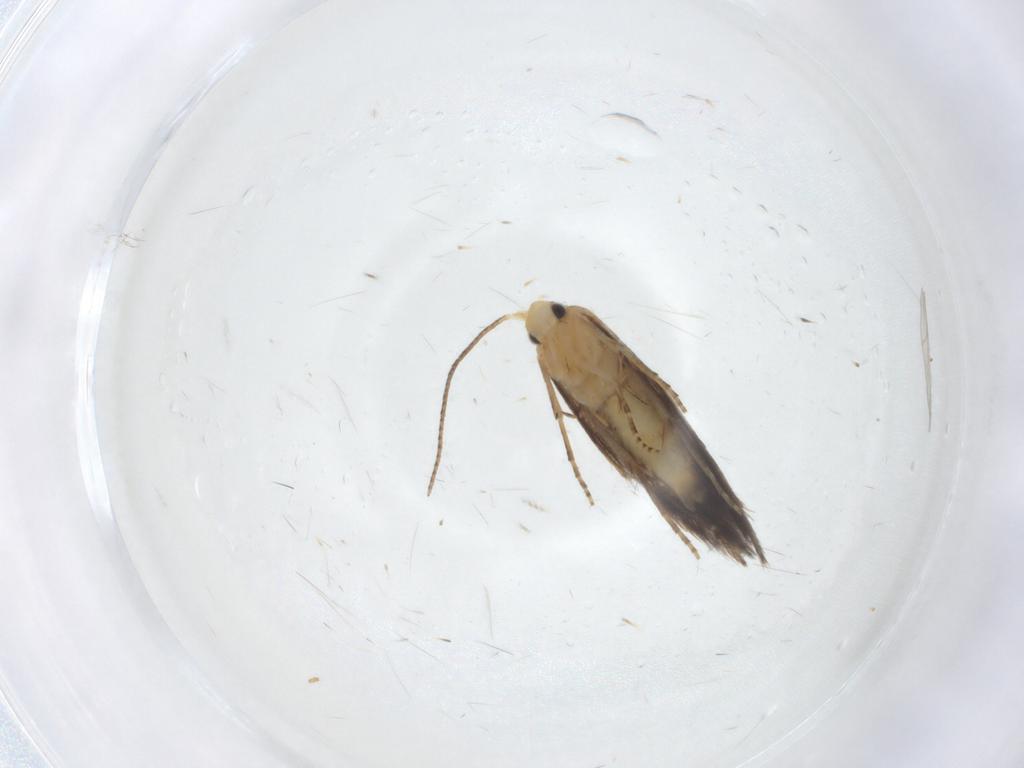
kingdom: Animalia
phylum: Arthropoda
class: Insecta
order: Lepidoptera
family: Bucculatricidae
